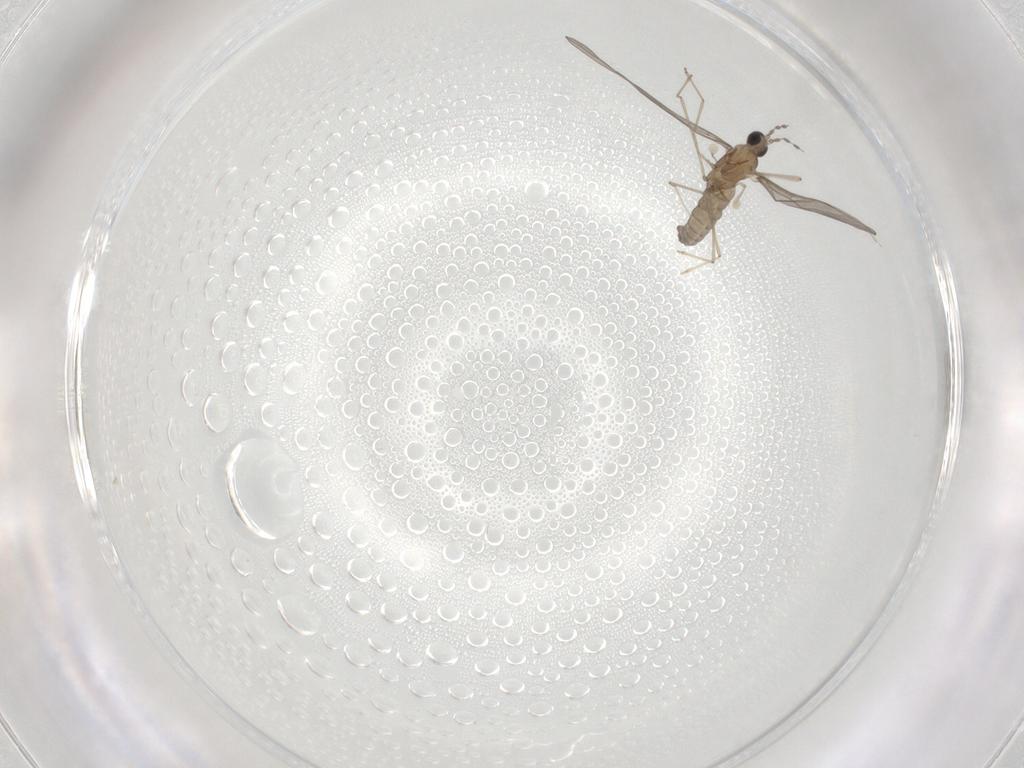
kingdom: Animalia
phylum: Arthropoda
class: Insecta
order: Diptera
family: Cecidomyiidae
